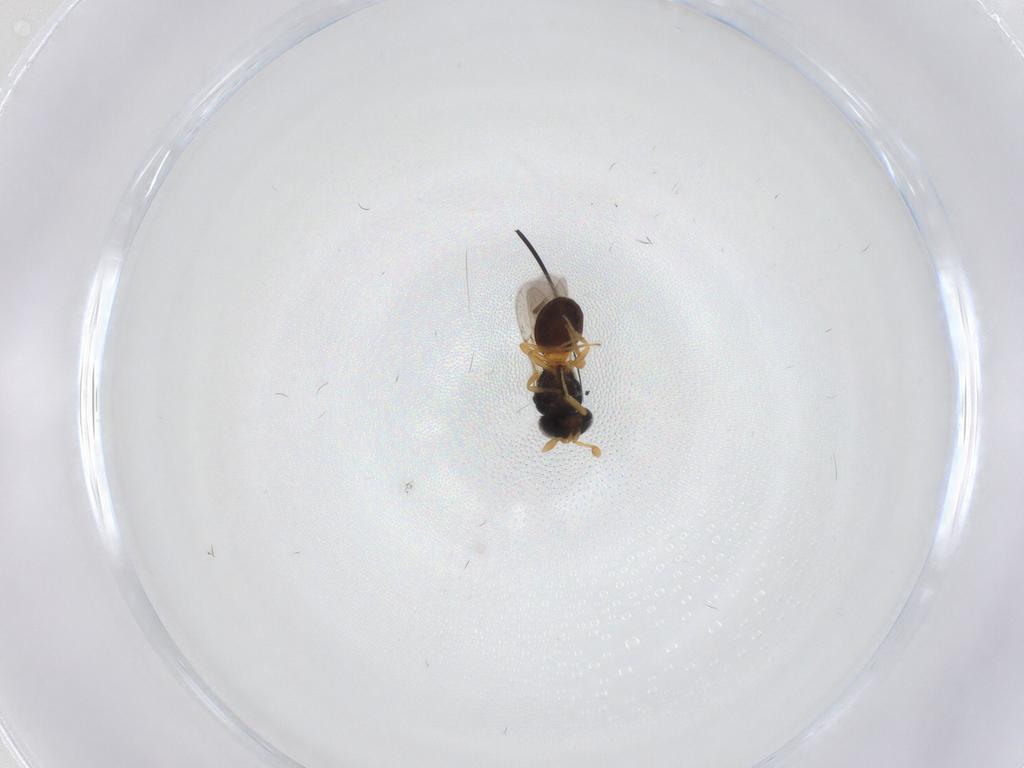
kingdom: Animalia
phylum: Arthropoda
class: Insecta
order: Hymenoptera
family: Scelionidae
